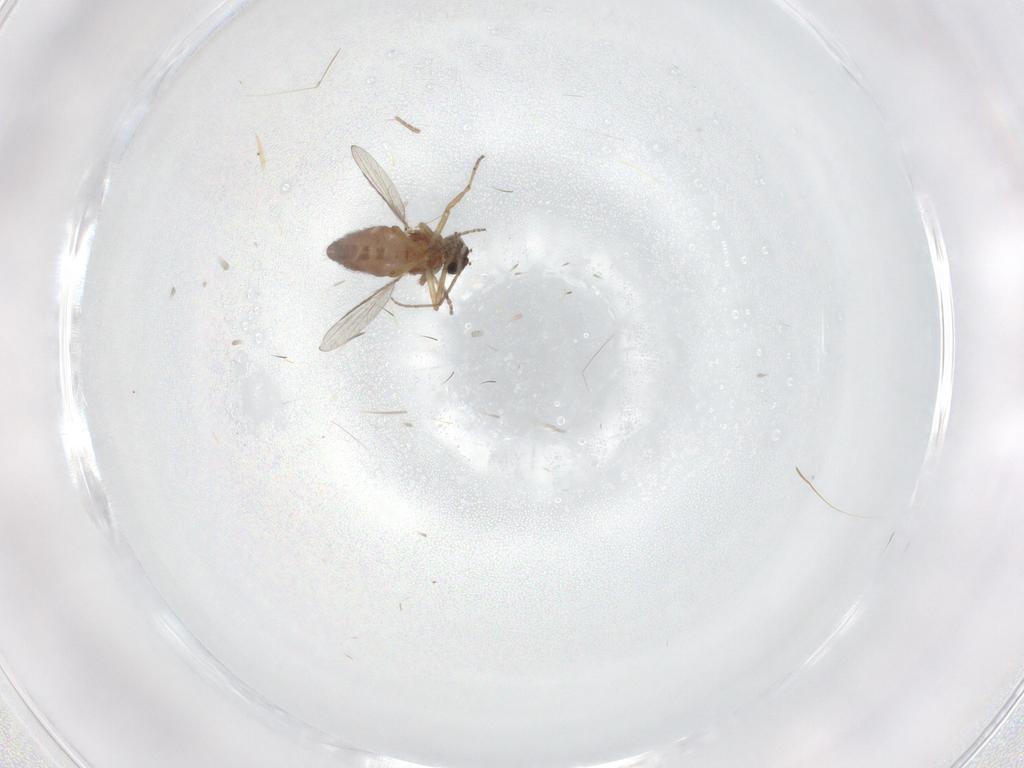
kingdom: Animalia
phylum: Arthropoda
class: Insecta
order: Diptera
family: Ceratopogonidae
